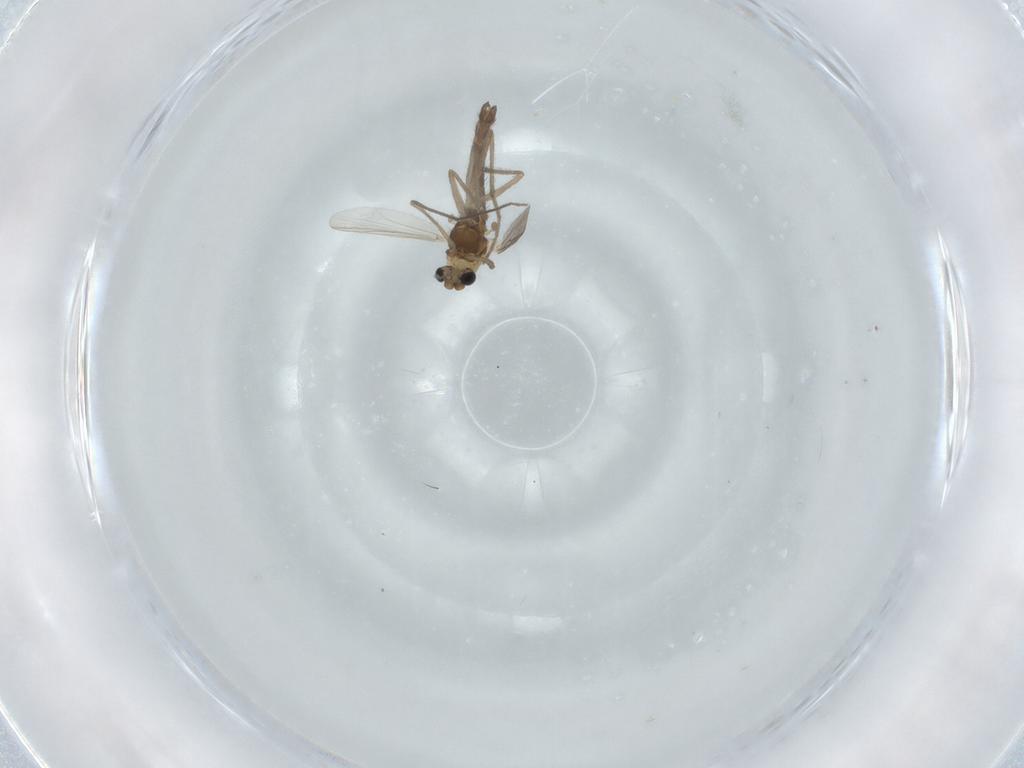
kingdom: Animalia
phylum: Arthropoda
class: Insecta
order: Diptera
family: Chironomidae
